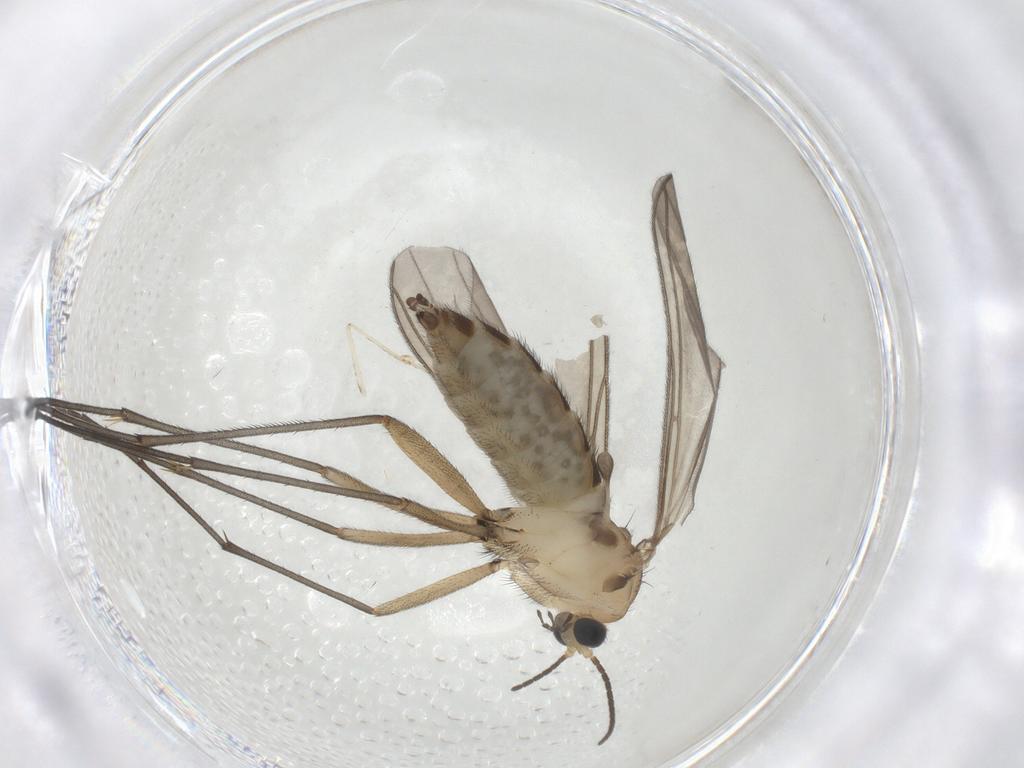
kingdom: Animalia
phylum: Arthropoda
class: Insecta
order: Diptera
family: Sciaridae
